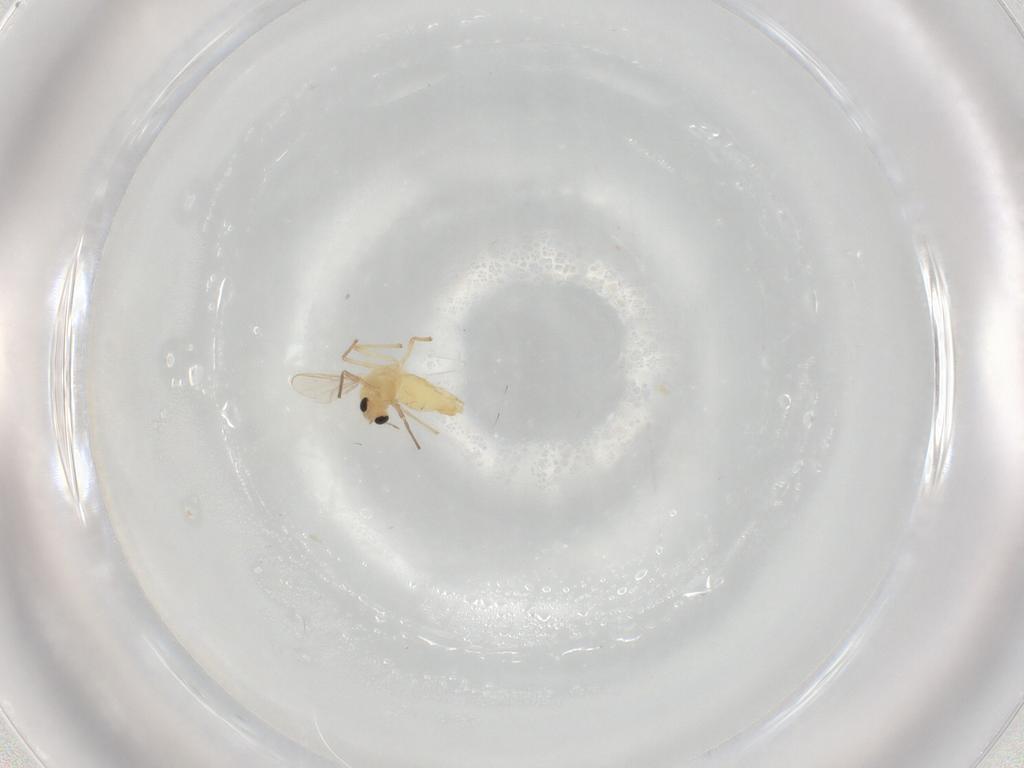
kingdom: Animalia
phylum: Arthropoda
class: Insecta
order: Diptera
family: Chironomidae
